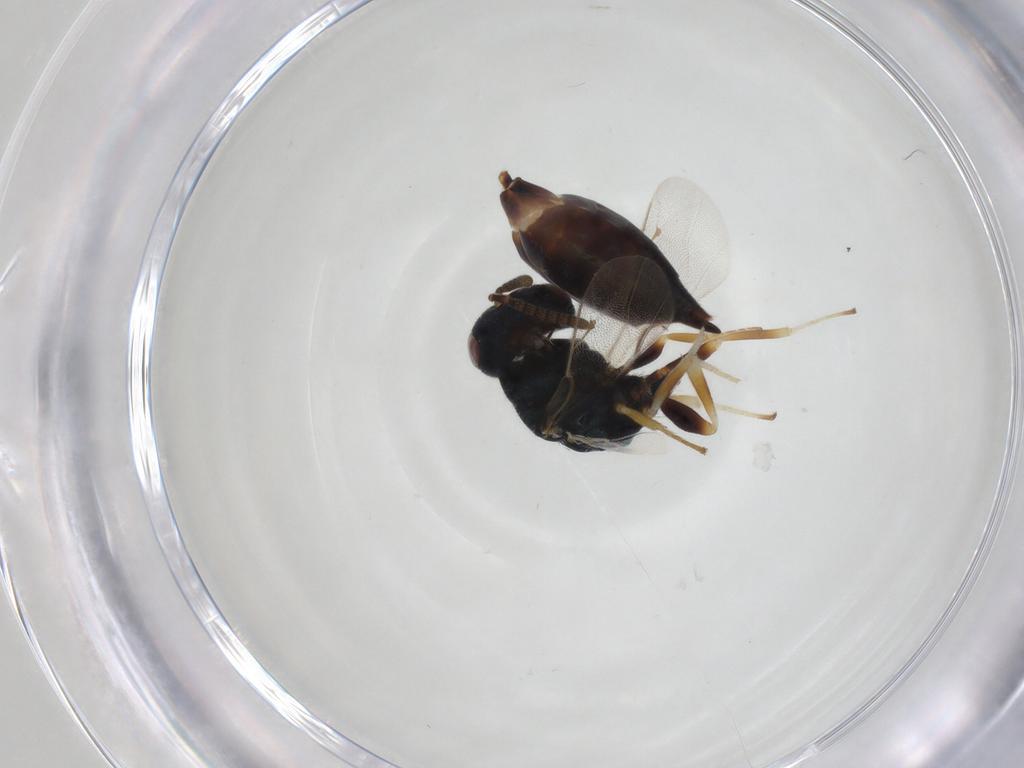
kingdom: Animalia
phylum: Arthropoda
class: Insecta
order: Hymenoptera
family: Pteromalidae
